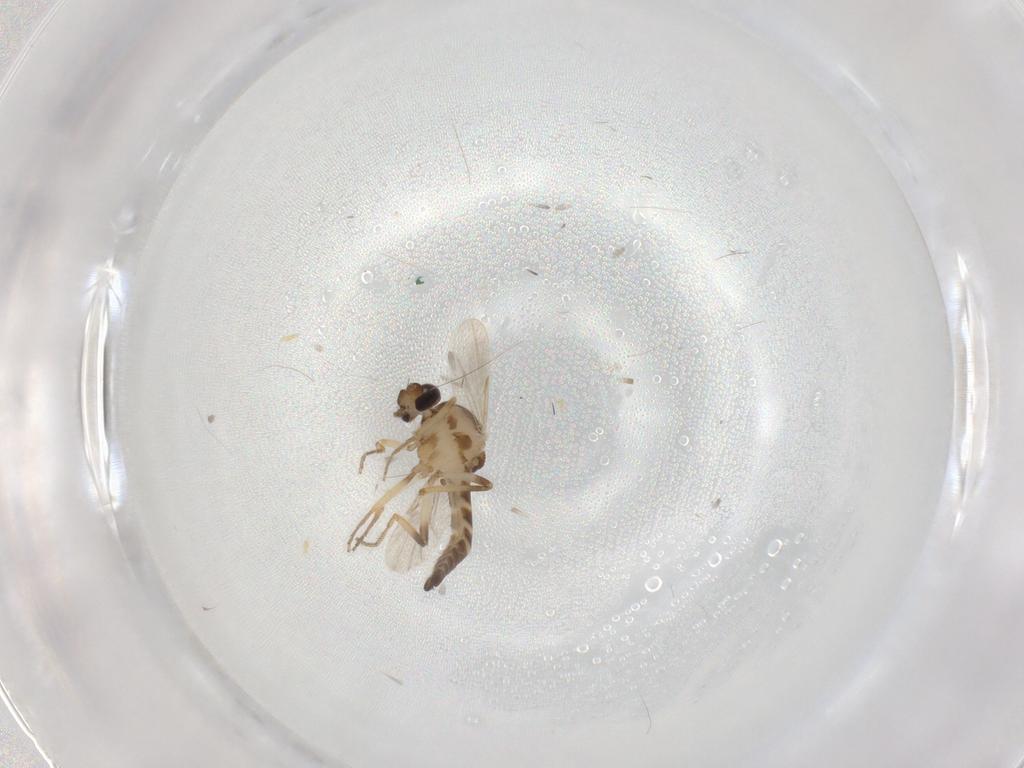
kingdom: Animalia
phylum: Arthropoda
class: Insecta
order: Diptera
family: Ceratopogonidae
